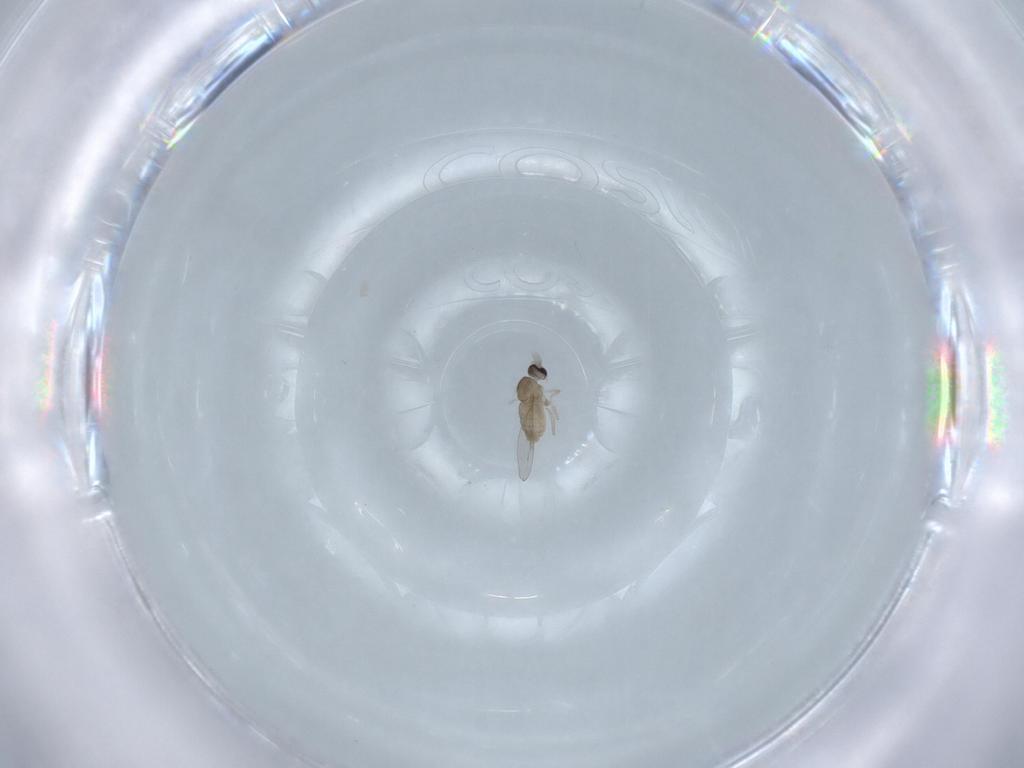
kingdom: Animalia
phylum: Arthropoda
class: Insecta
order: Diptera
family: Cecidomyiidae
